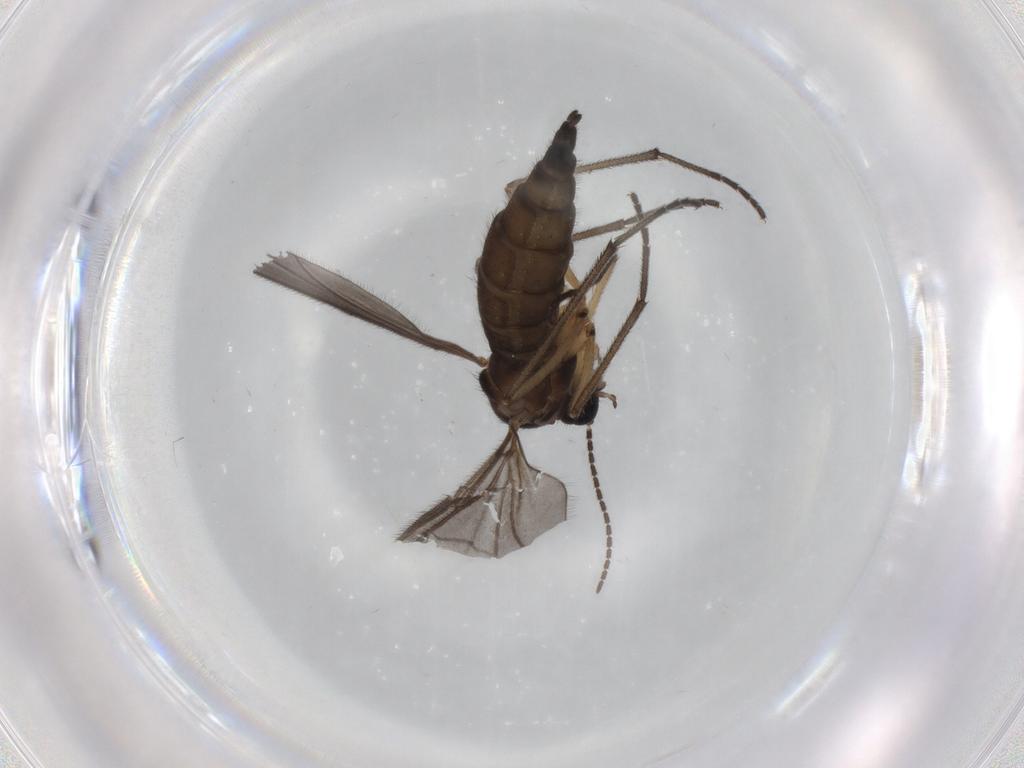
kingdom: Animalia
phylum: Arthropoda
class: Insecta
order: Diptera
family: Sciaridae
